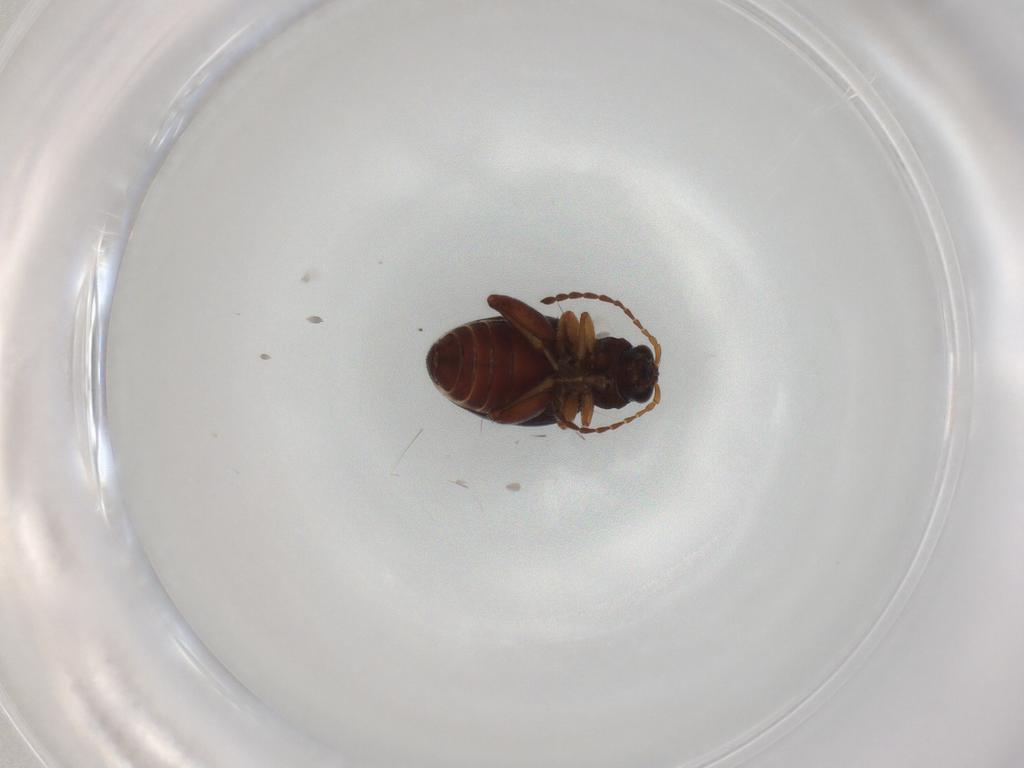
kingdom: Animalia
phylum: Arthropoda
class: Insecta
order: Coleoptera
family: Chrysomelidae
